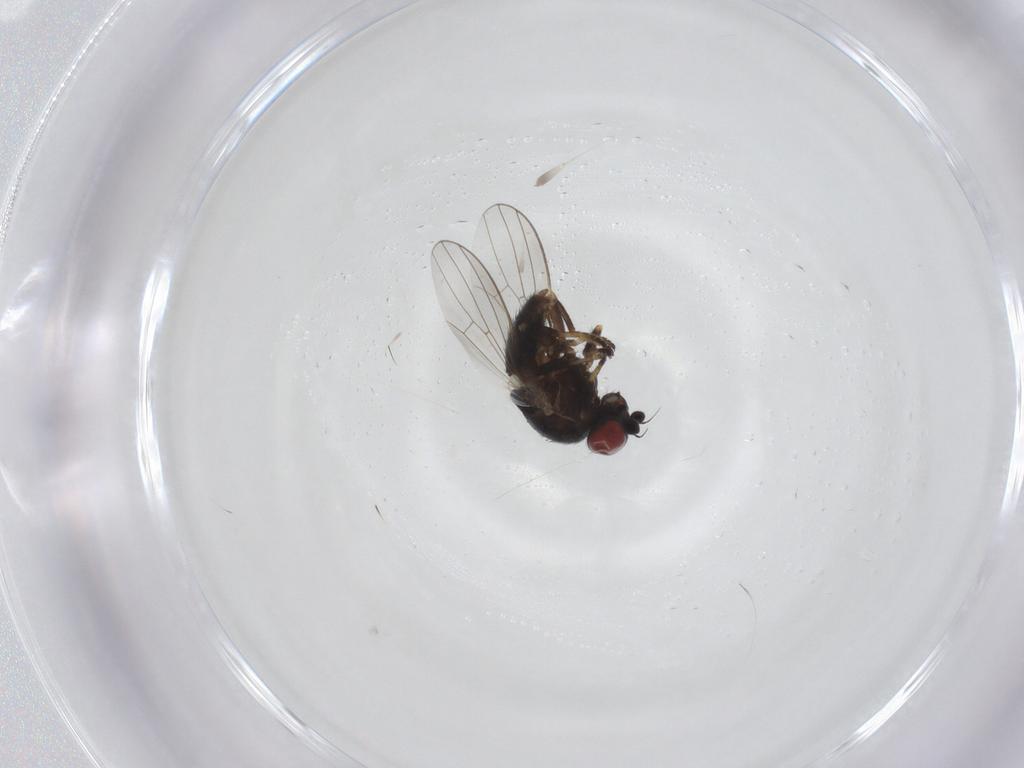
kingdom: Animalia
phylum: Arthropoda
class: Insecta
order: Diptera
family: Chamaemyiidae
